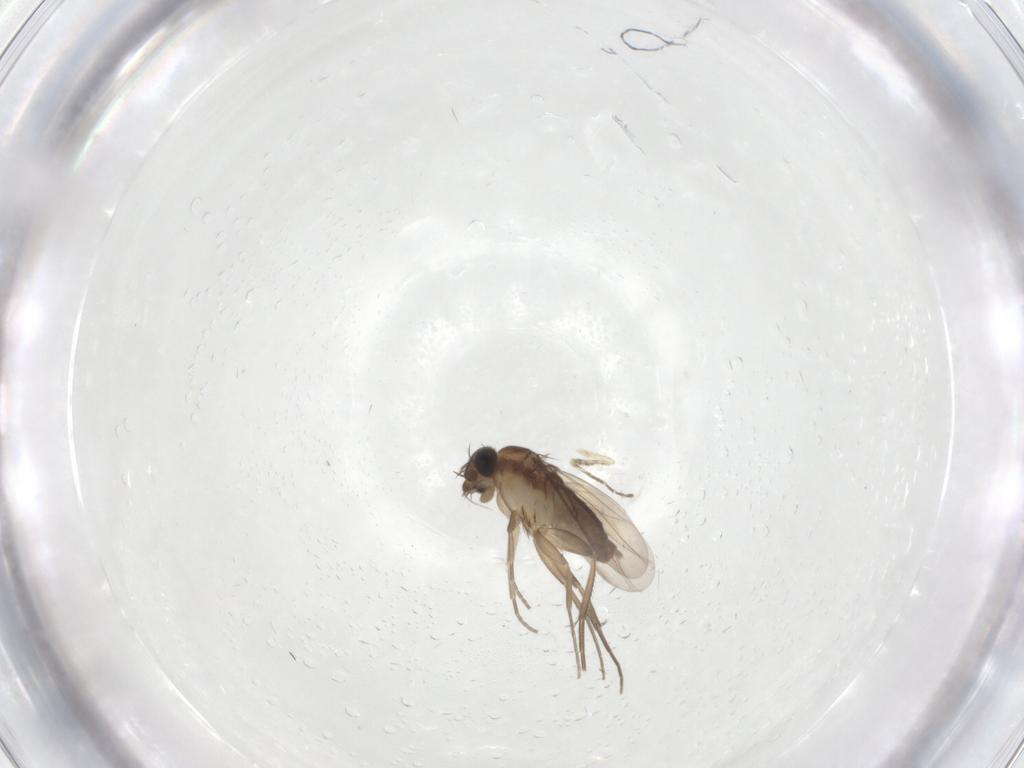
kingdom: Animalia
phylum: Arthropoda
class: Insecta
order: Diptera
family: Phoridae
